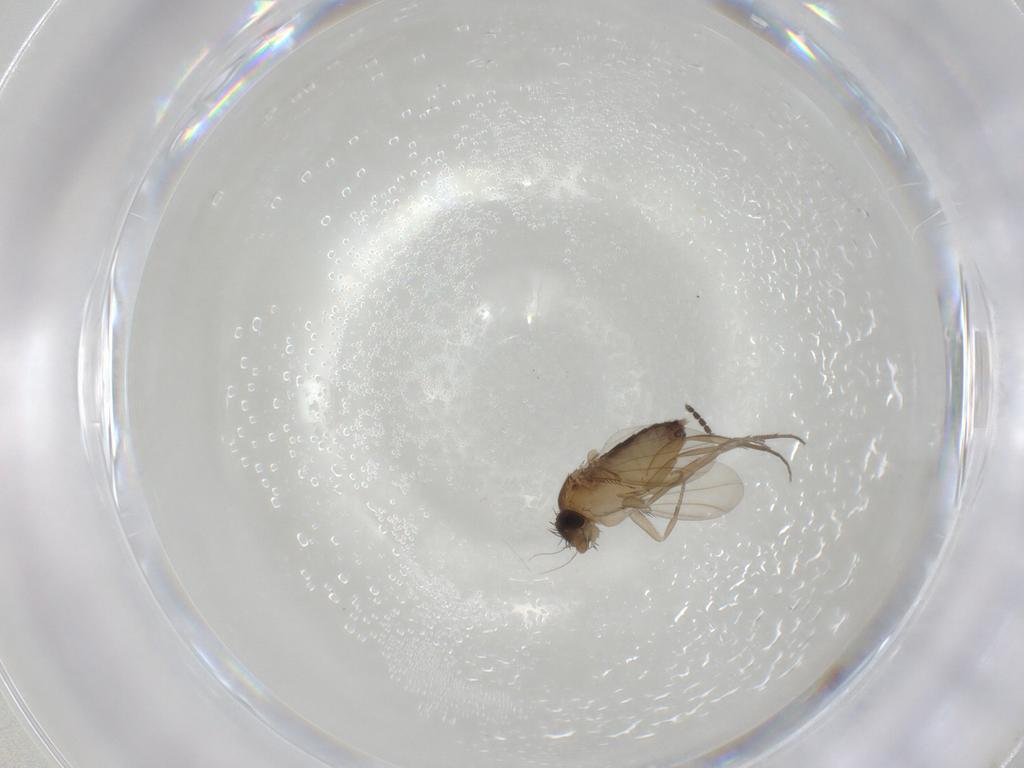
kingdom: Animalia
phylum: Arthropoda
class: Insecta
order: Diptera
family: Phoridae
